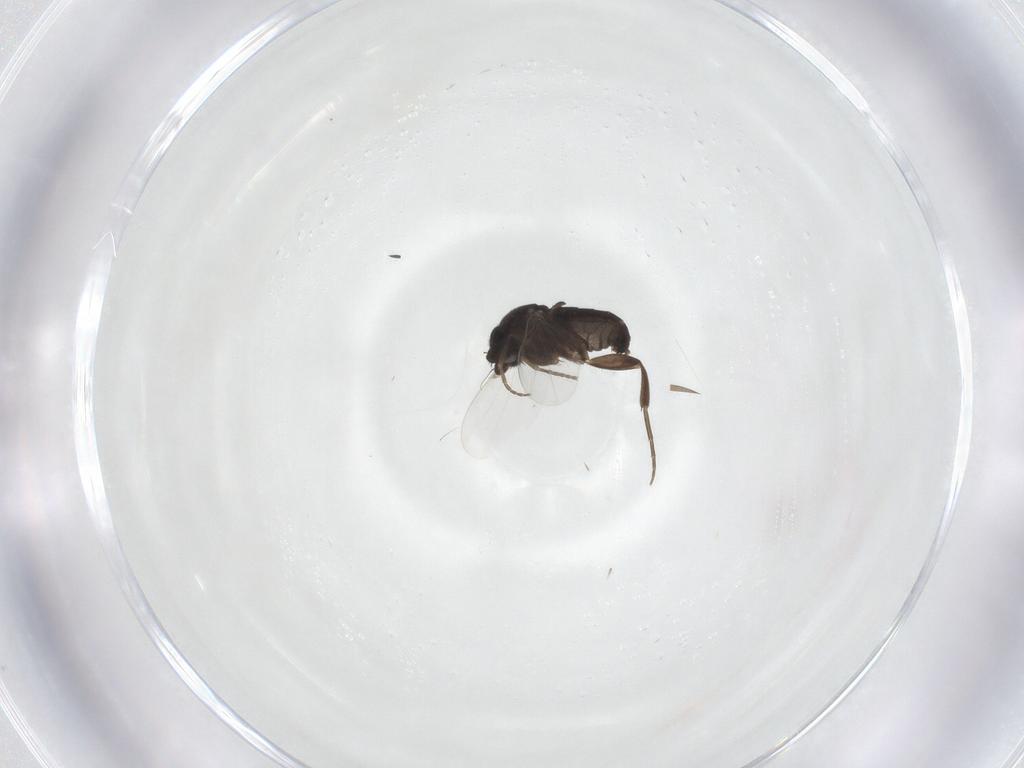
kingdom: Animalia
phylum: Arthropoda
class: Insecta
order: Diptera
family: Phoridae
